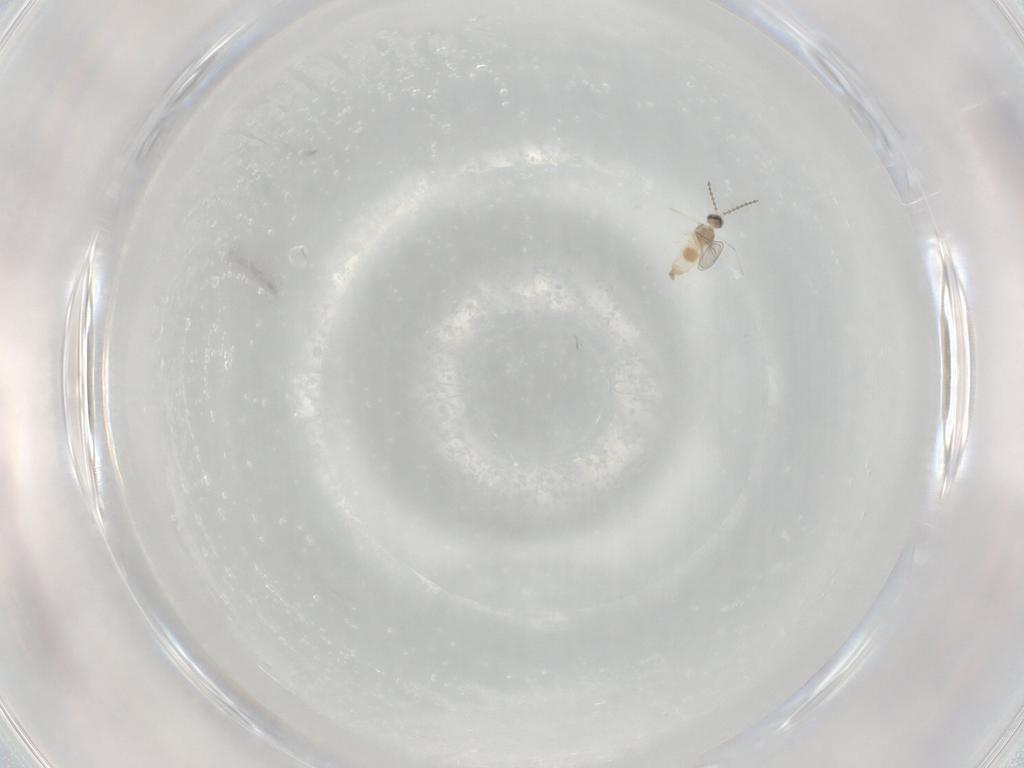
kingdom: Animalia
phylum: Arthropoda
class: Insecta
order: Diptera
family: Cecidomyiidae
